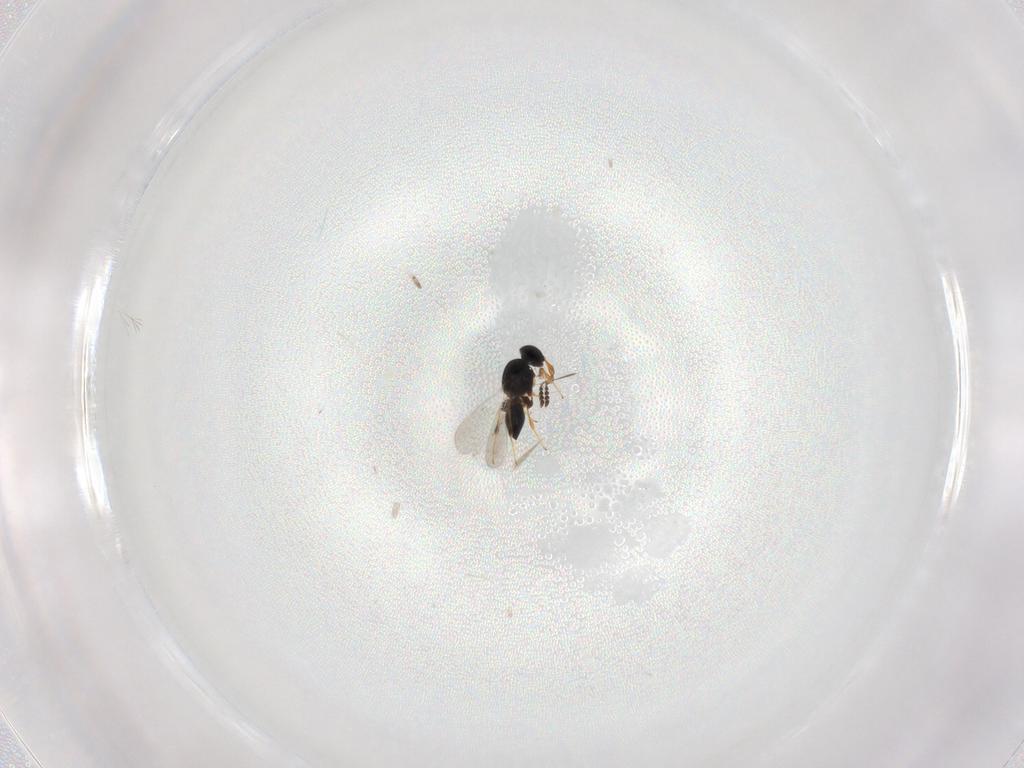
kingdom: Animalia
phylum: Arthropoda
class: Insecta
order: Hymenoptera
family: Platygastridae
